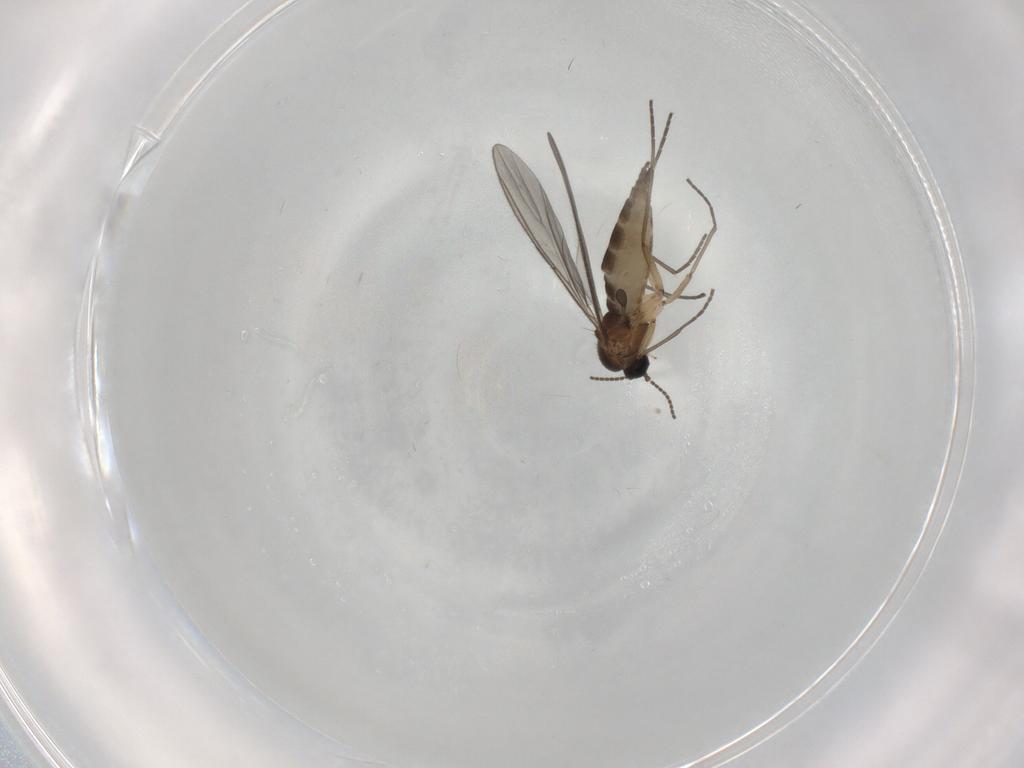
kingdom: Animalia
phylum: Arthropoda
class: Insecta
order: Diptera
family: Sciaridae
